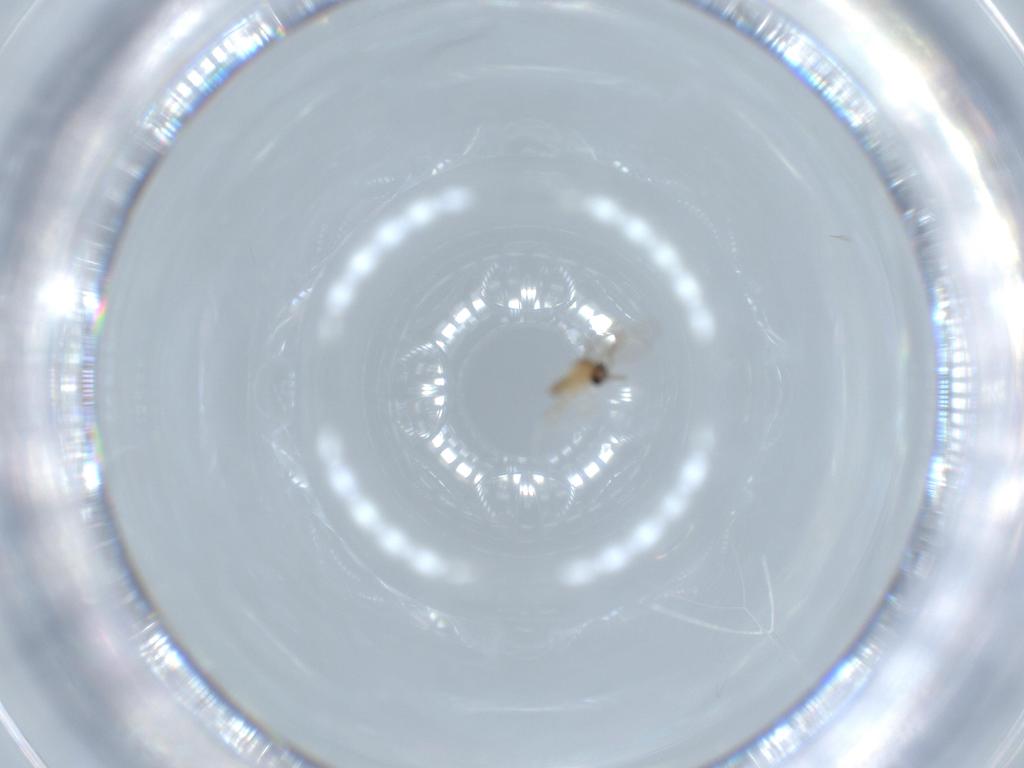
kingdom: Animalia
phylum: Arthropoda
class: Insecta
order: Diptera
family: Cecidomyiidae
